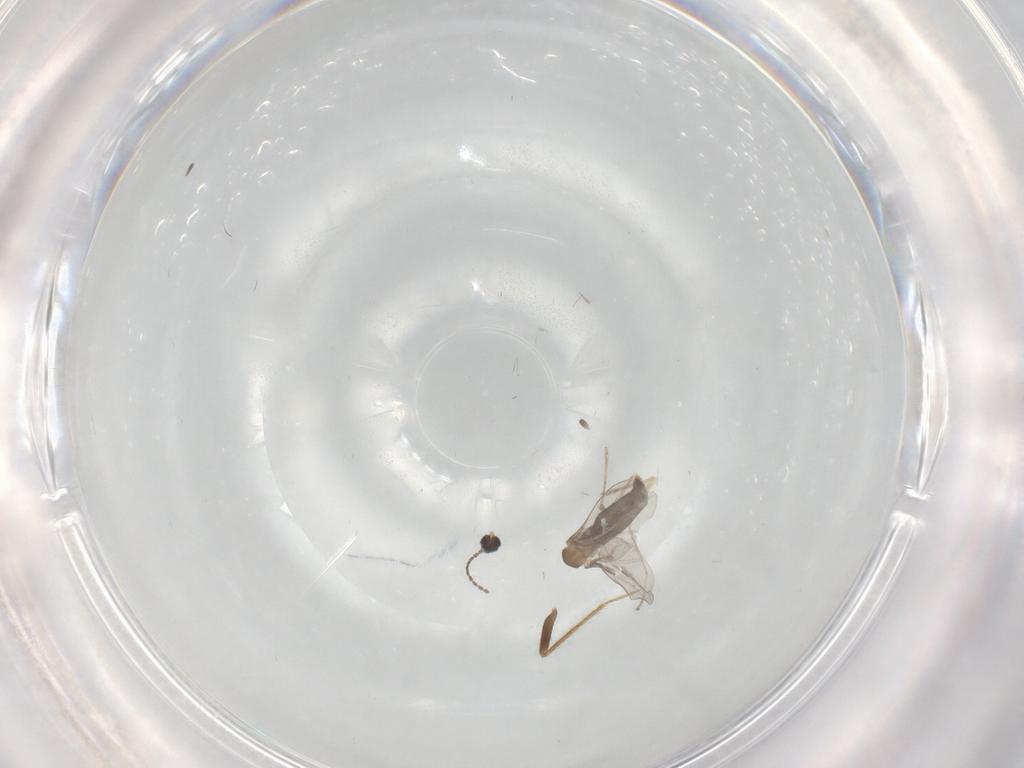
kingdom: Animalia
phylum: Arthropoda
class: Insecta
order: Diptera
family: Cecidomyiidae
